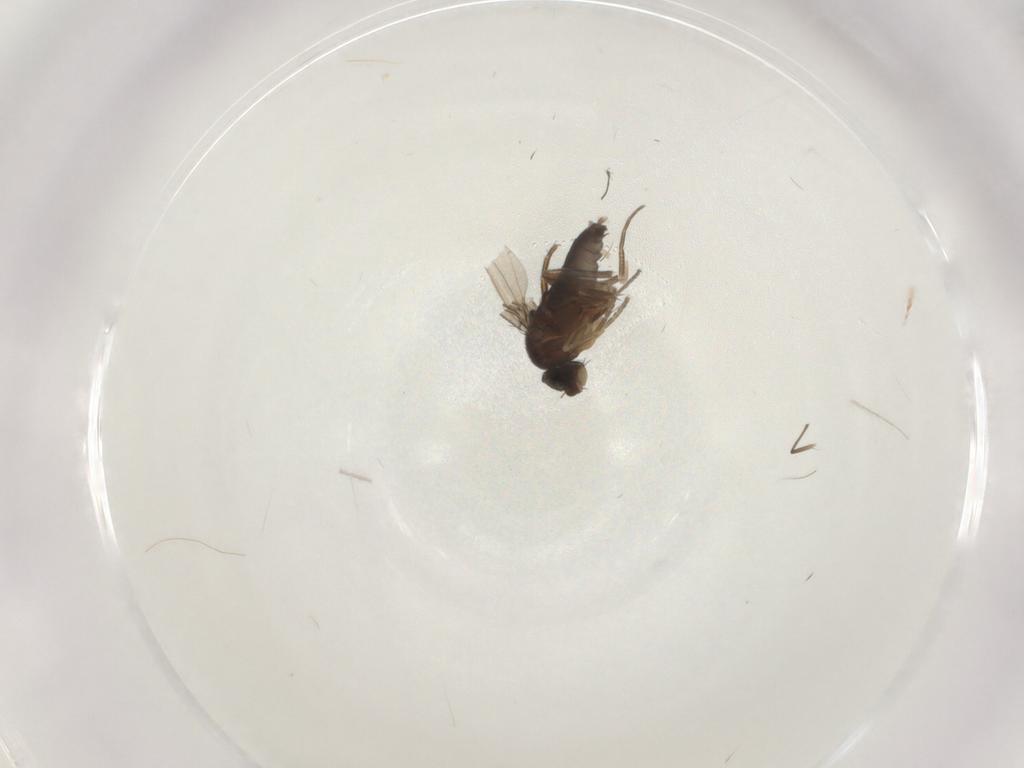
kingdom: Animalia
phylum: Arthropoda
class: Insecta
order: Diptera
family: Phoridae
